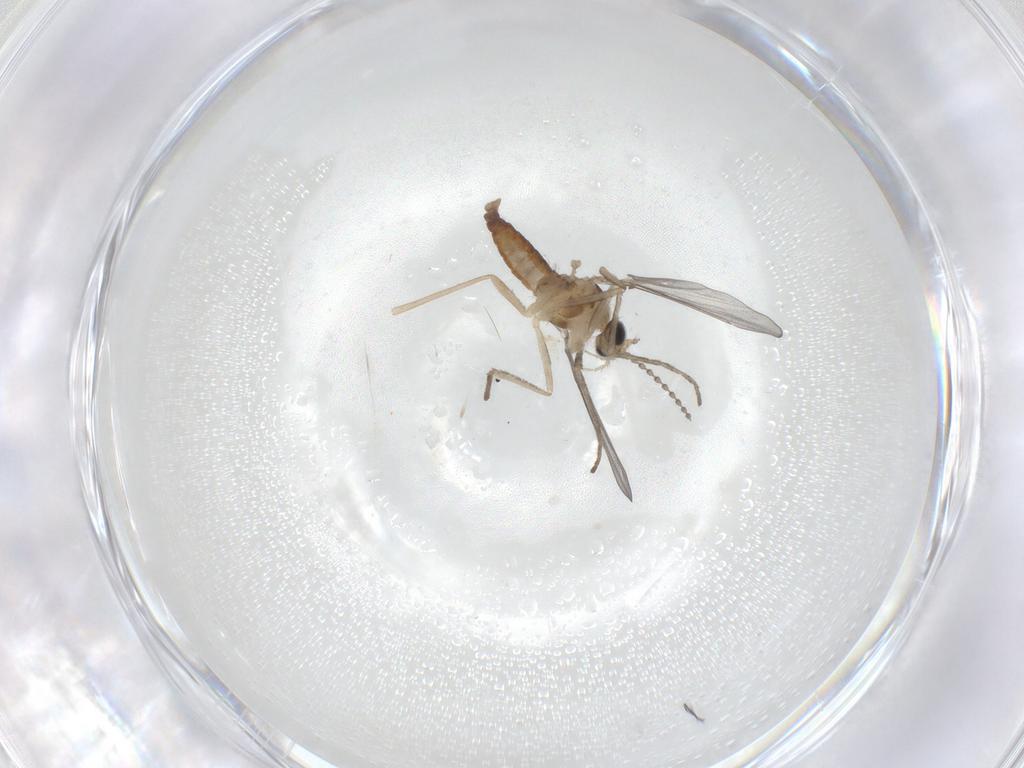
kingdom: Animalia
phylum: Arthropoda
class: Insecta
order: Diptera
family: Cecidomyiidae
